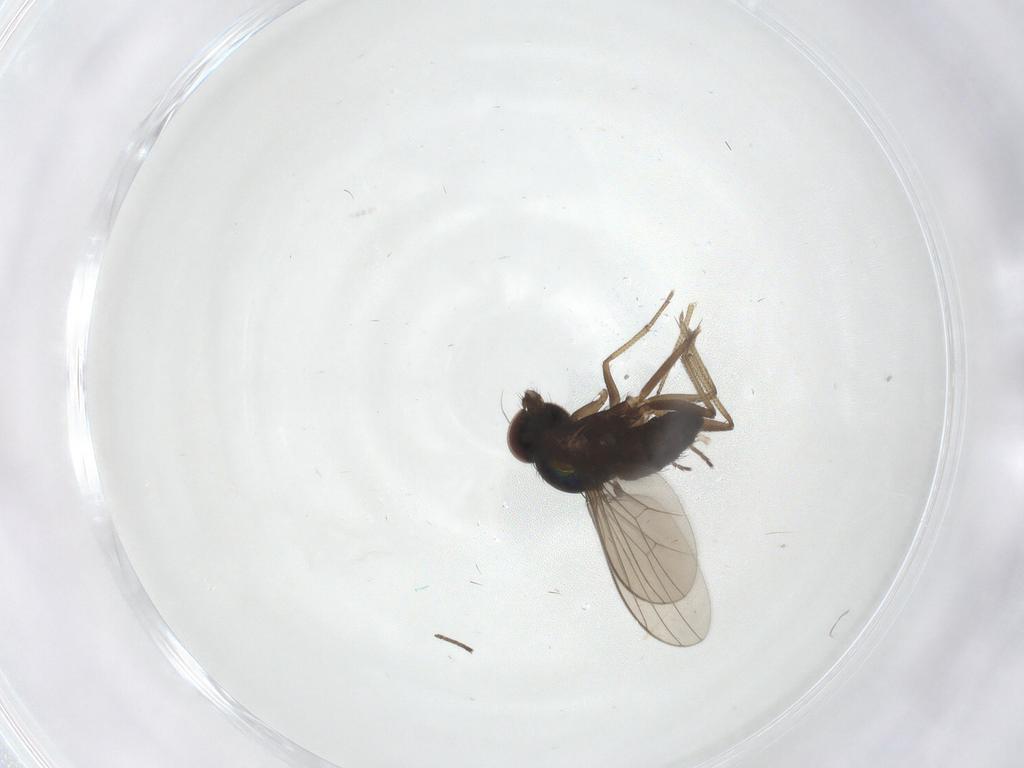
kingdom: Animalia
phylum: Arthropoda
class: Insecta
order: Diptera
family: Dolichopodidae
